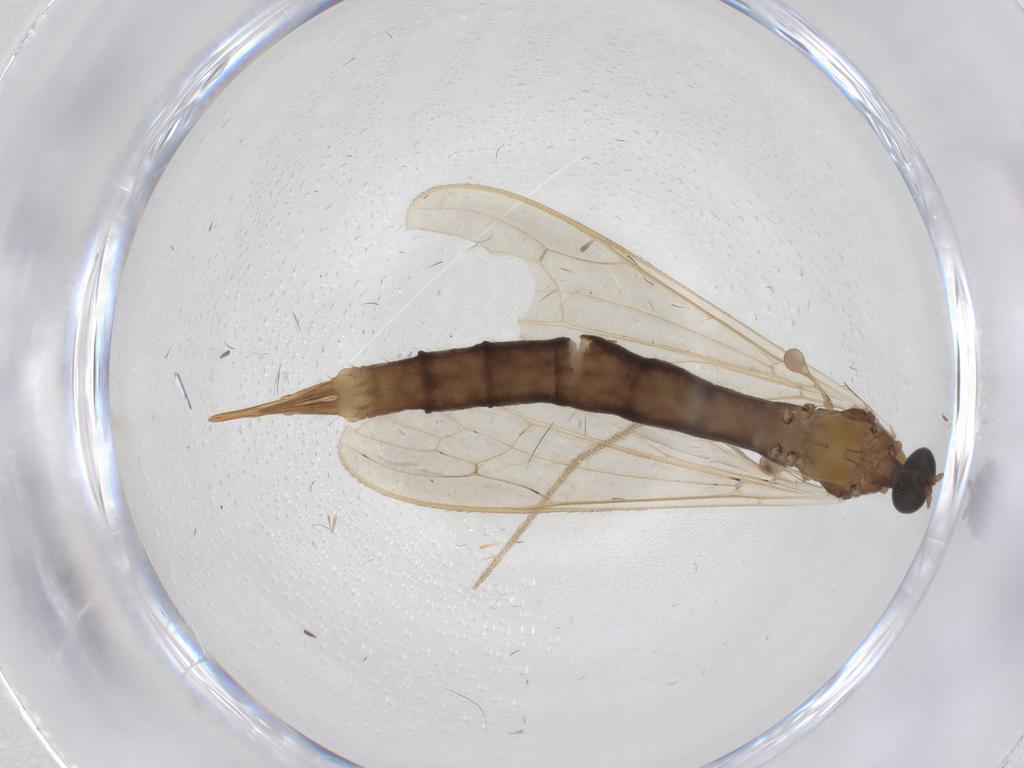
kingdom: Animalia
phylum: Arthropoda
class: Insecta
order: Diptera
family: Limoniidae
